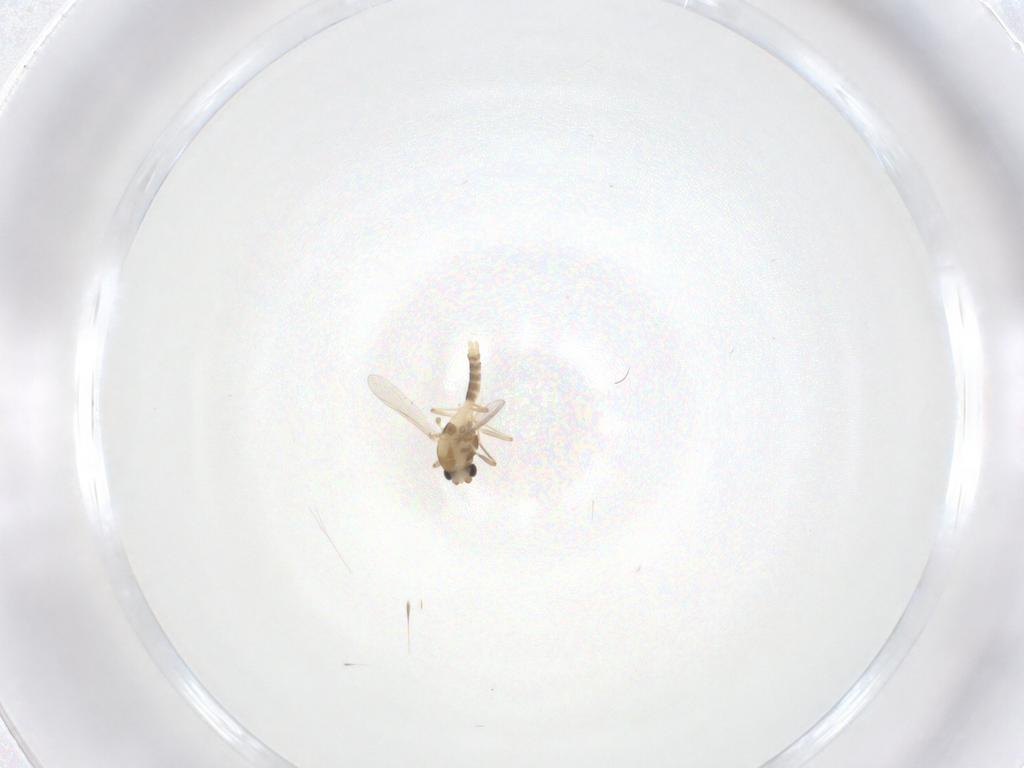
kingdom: Animalia
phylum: Arthropoda
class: Insecta
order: Diptera
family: Chironomidae
